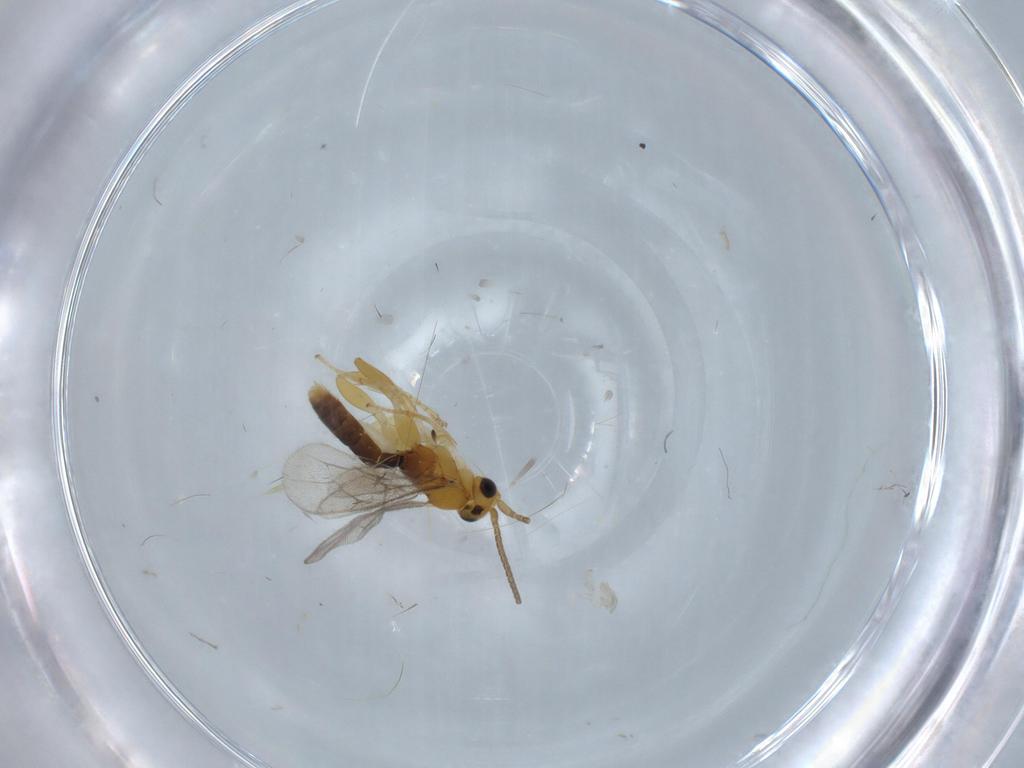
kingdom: Animalia
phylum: Arthropoda
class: Insecta
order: Hymenoptera
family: Ichneumonidae
